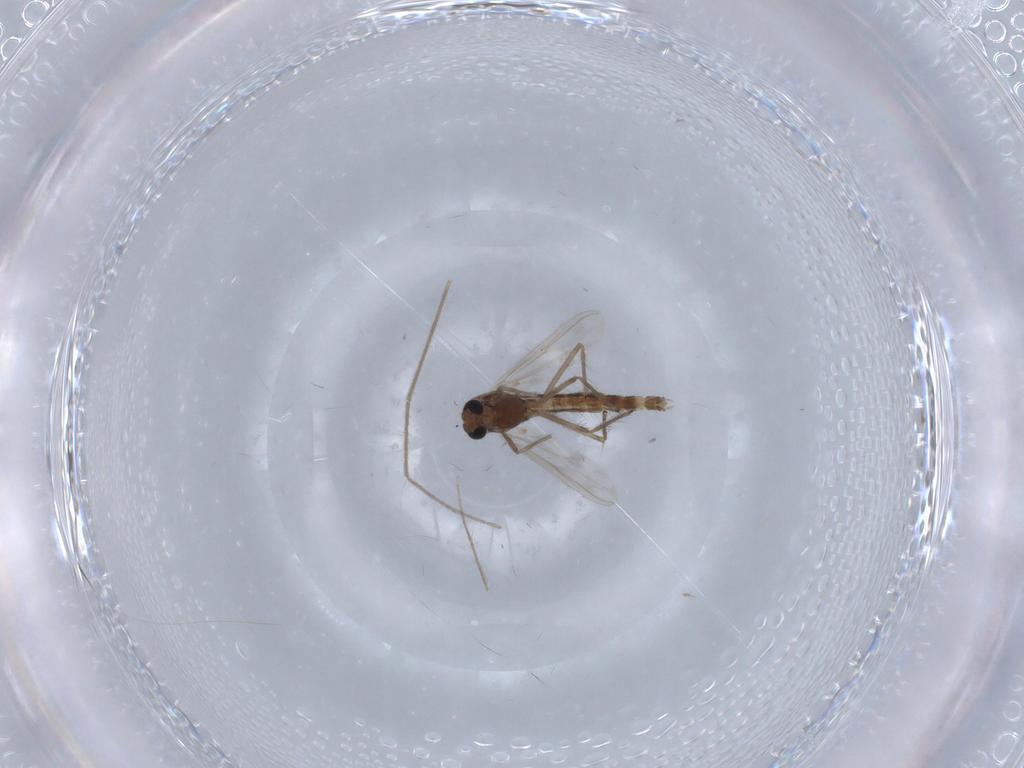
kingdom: Animalia
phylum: Arthropoda
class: Insecta
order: Diptera
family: Chironomidae
